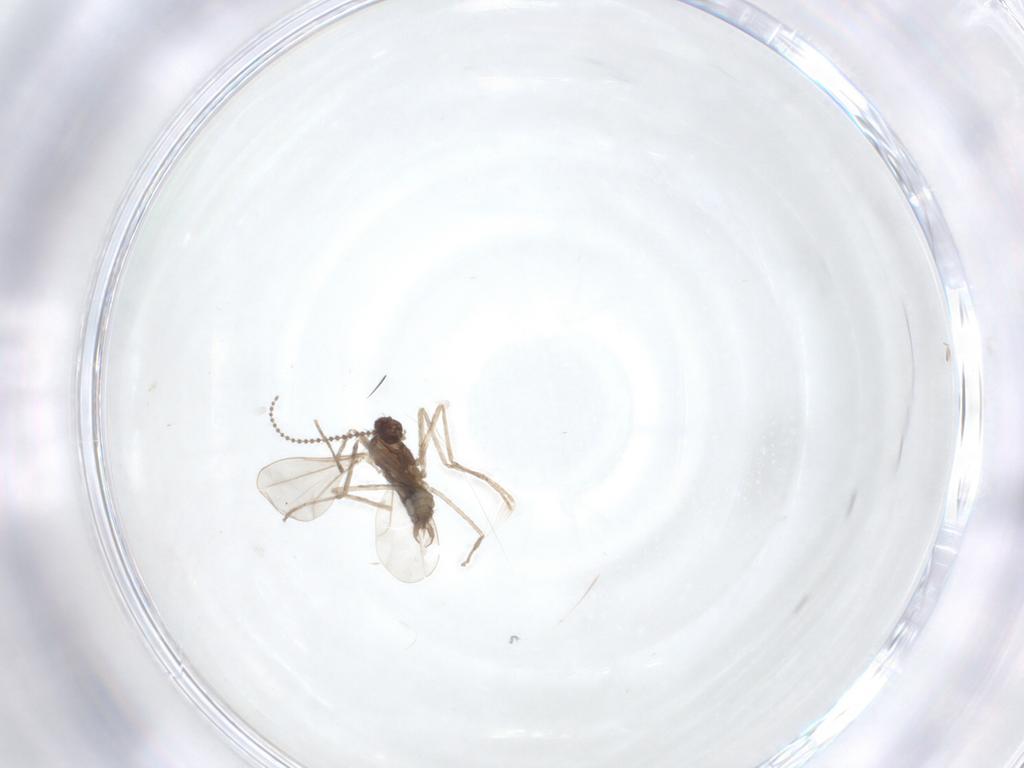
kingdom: Animalia
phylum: Arthropoda
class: Insecta
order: Diptera
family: Cecidomyiidae
